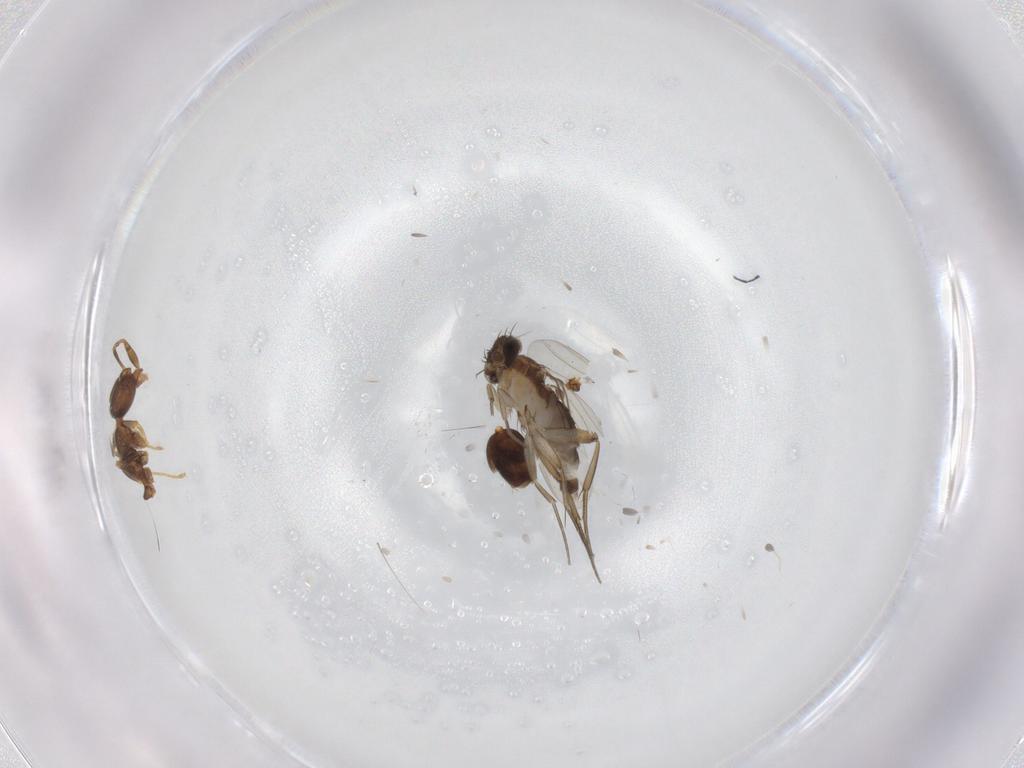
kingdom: Animalia
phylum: Arthropoda
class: Insecta
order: Diptera
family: Phoridae
